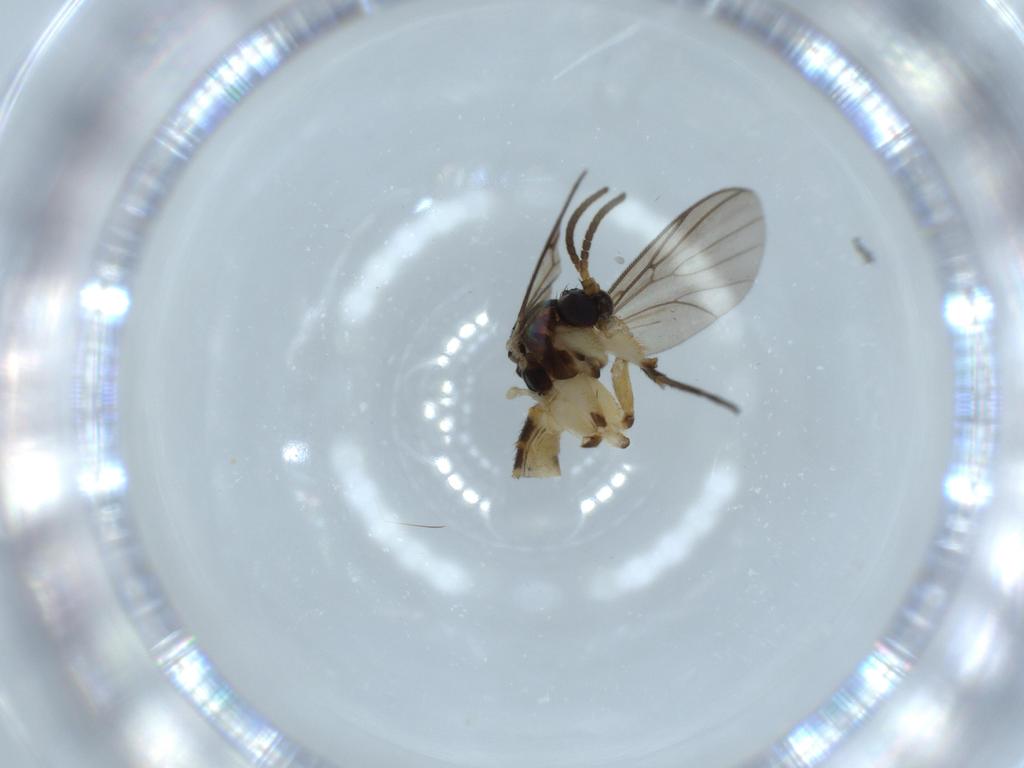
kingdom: Animalia
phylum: Arthropoda
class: Insecta
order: Diptera
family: Mycetophilidae
